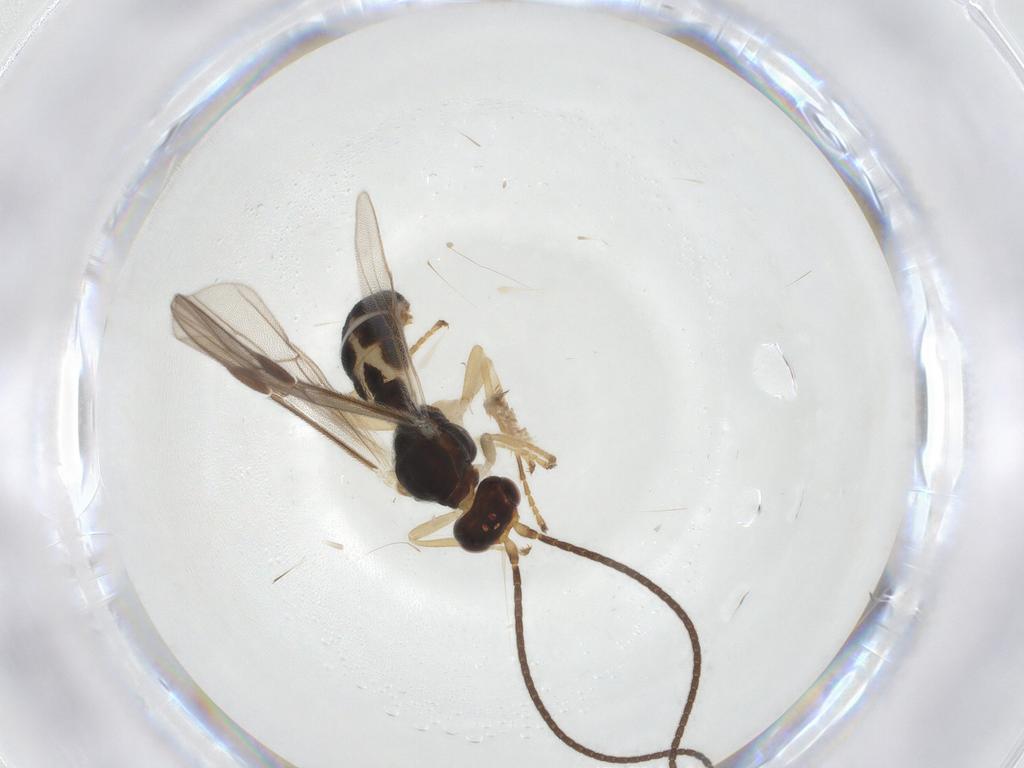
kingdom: Animalia
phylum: Arthropoda
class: Insecta
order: Hymenoptera
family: Braconidae
